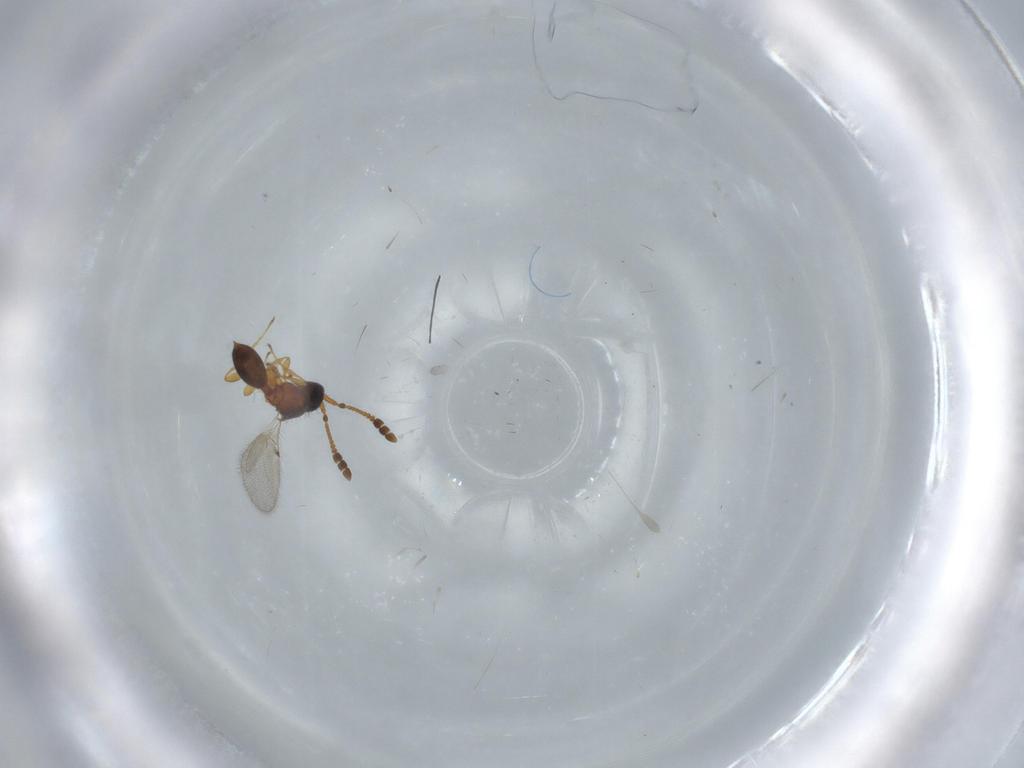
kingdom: Animalia
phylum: Arthropoda
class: Insecta
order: Hymenoptera
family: Diapriidae
